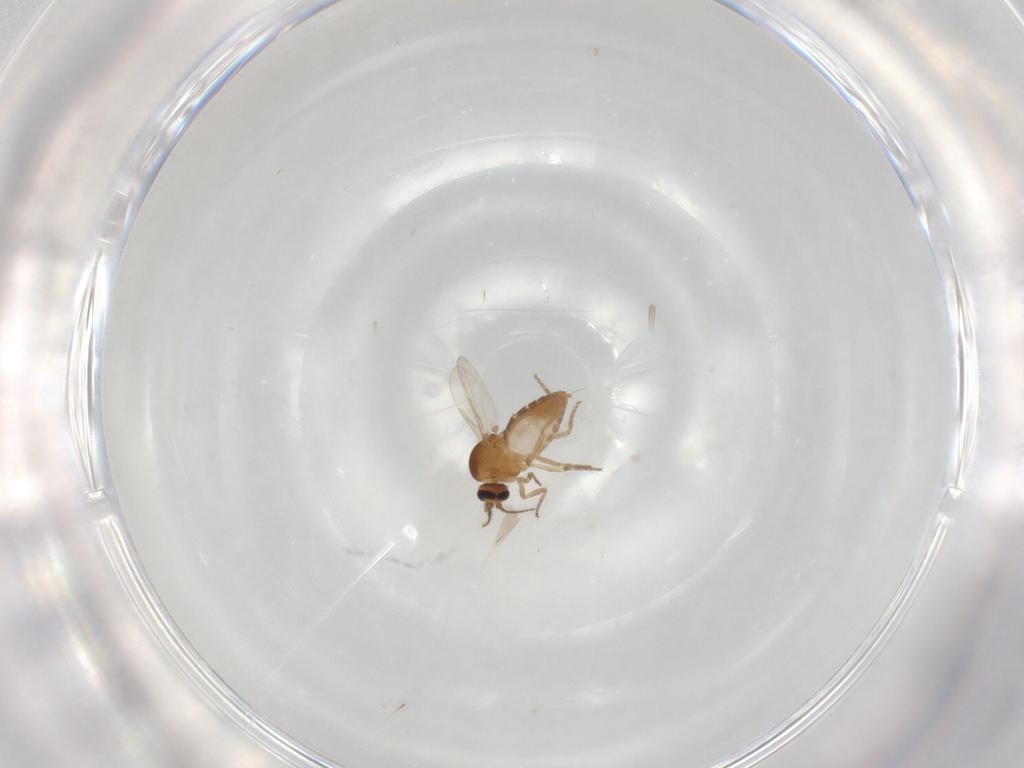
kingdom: Animalia
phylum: Arthropoda
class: Insecta
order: Diptera
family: Ceratopogonidae
